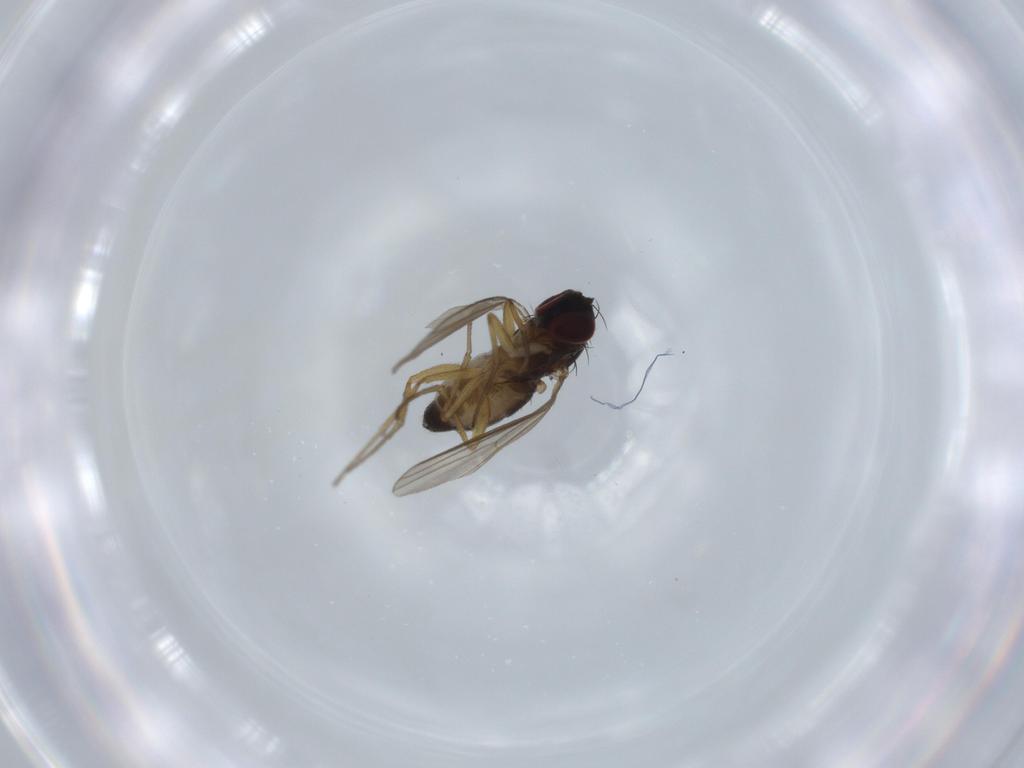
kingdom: Animalia
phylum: Arthropoda
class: Insecta
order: Diptera
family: Dolichopodidae
